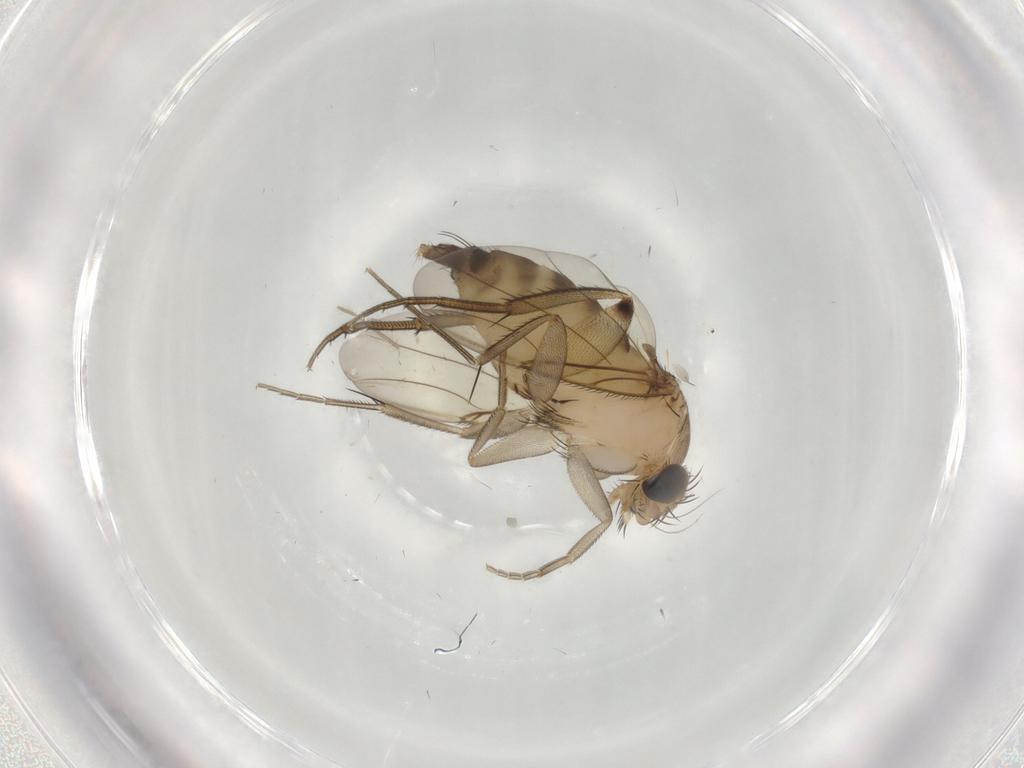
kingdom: Animalia
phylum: Arthropoda
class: Insecta
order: Diptera
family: Phoridae
